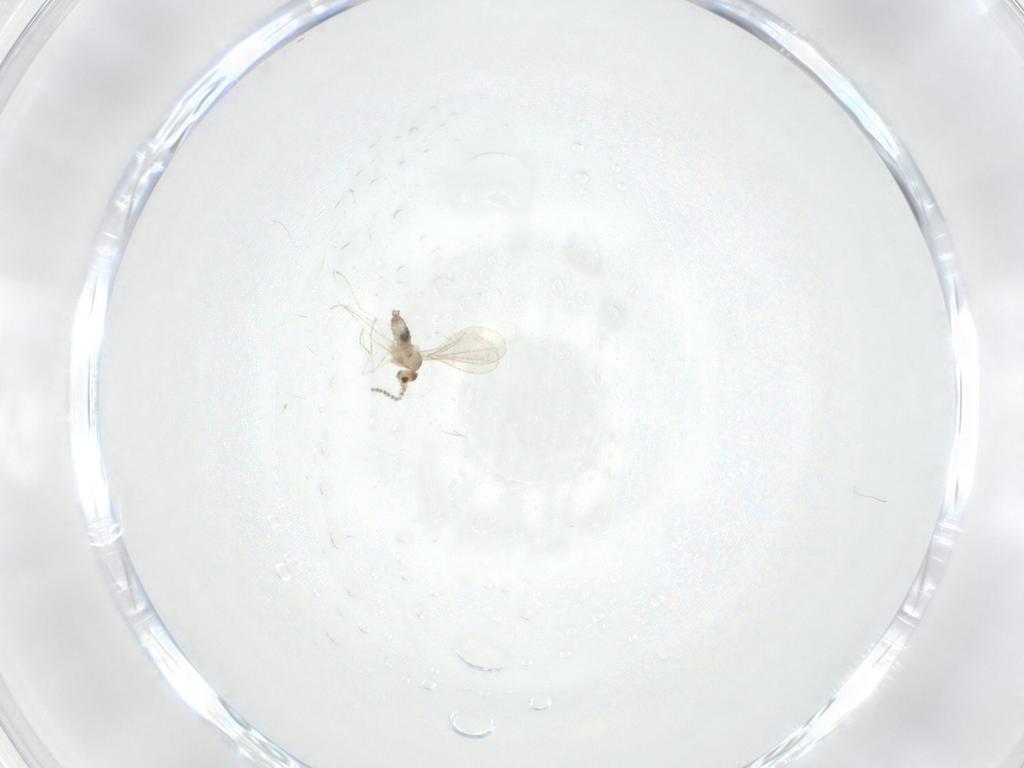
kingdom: Animalia
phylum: Arthropoda
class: Insecta
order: Diptera
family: Cecidomyiidae
